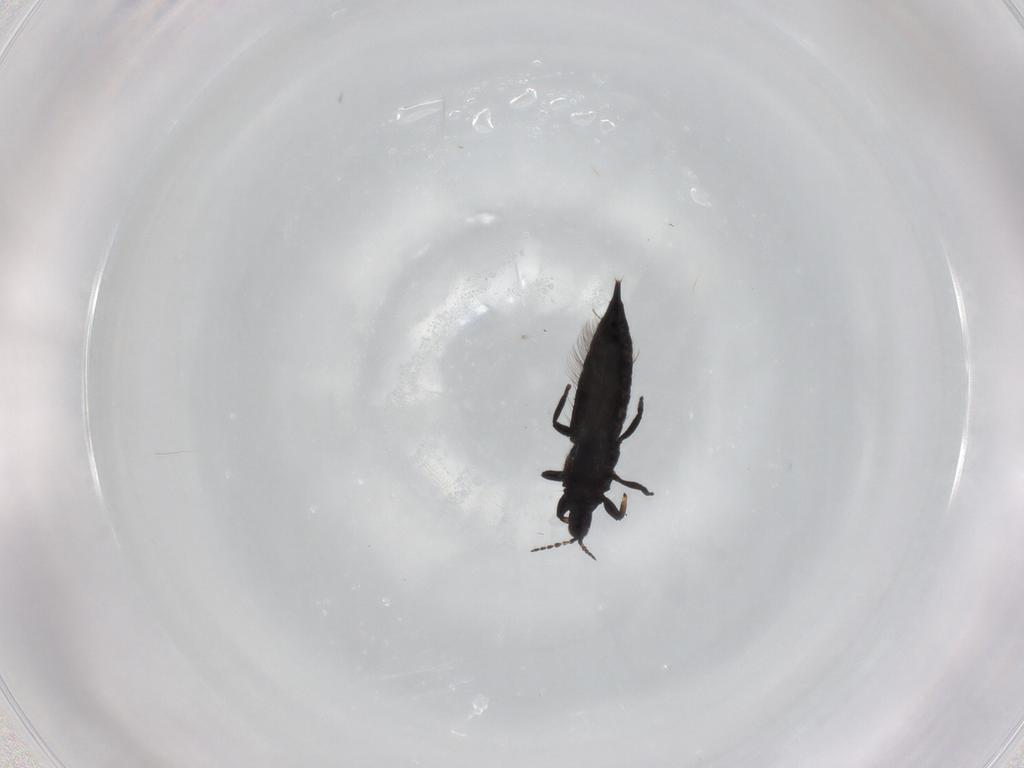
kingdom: Animalia
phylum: Arthropoda
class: Insecta
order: Thysanoptera
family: Phlaeothripidae
